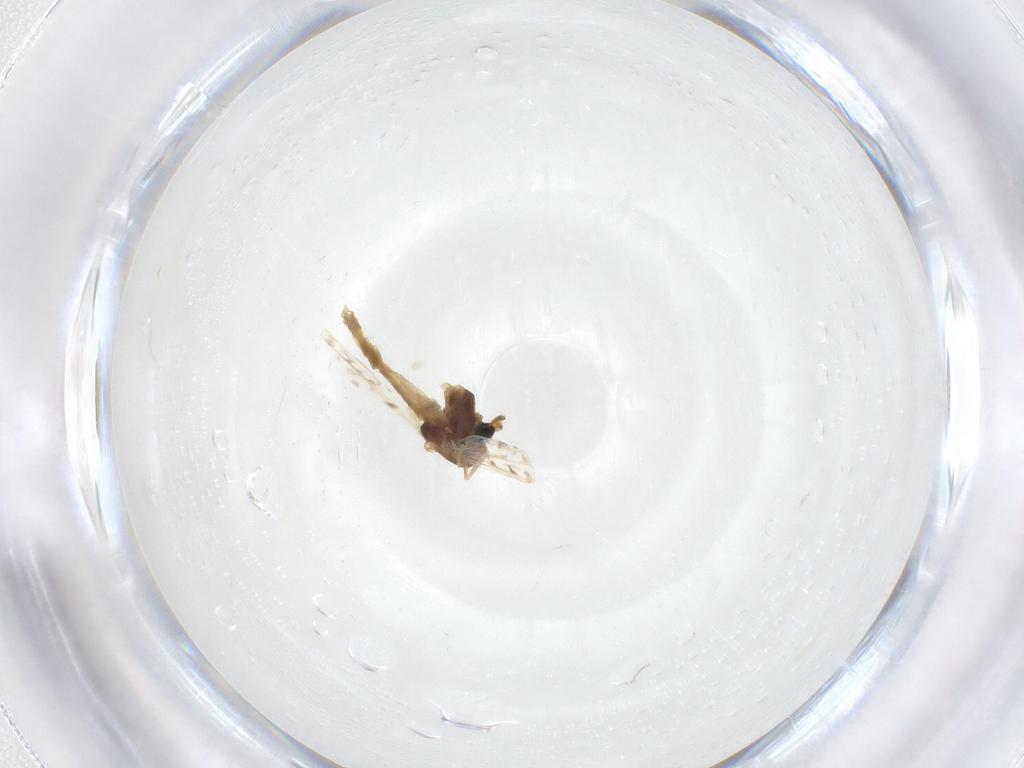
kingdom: Animalia
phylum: Arthropoda
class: Insecta
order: Diptera
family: Chironomidae
